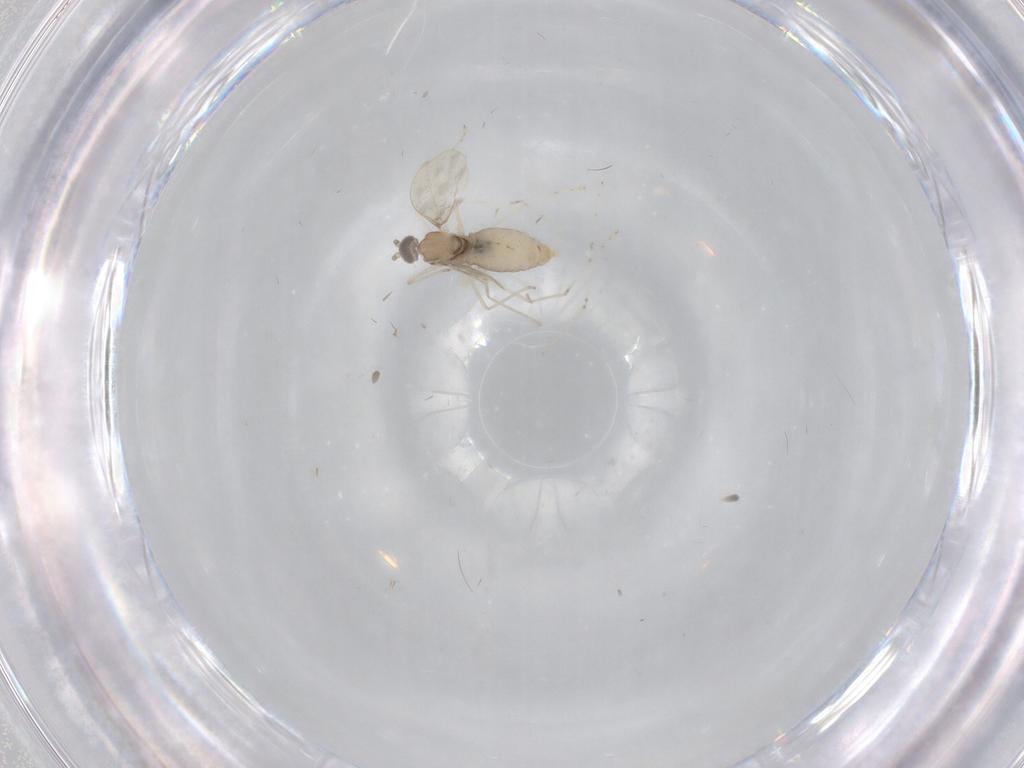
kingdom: Animalia
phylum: Arthropoda
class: Insecta
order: Diptera
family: Cecidomyiidae
